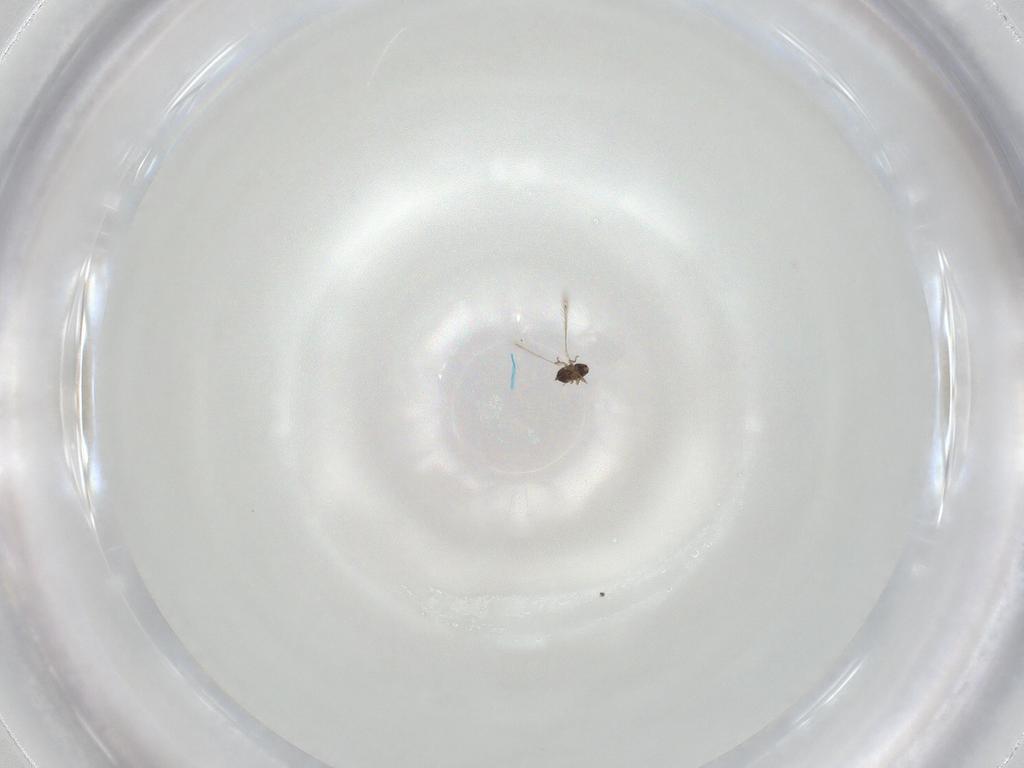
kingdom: Animalia
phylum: Arthropoda
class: Insecta
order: Hymenoptera
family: Mymaridae
